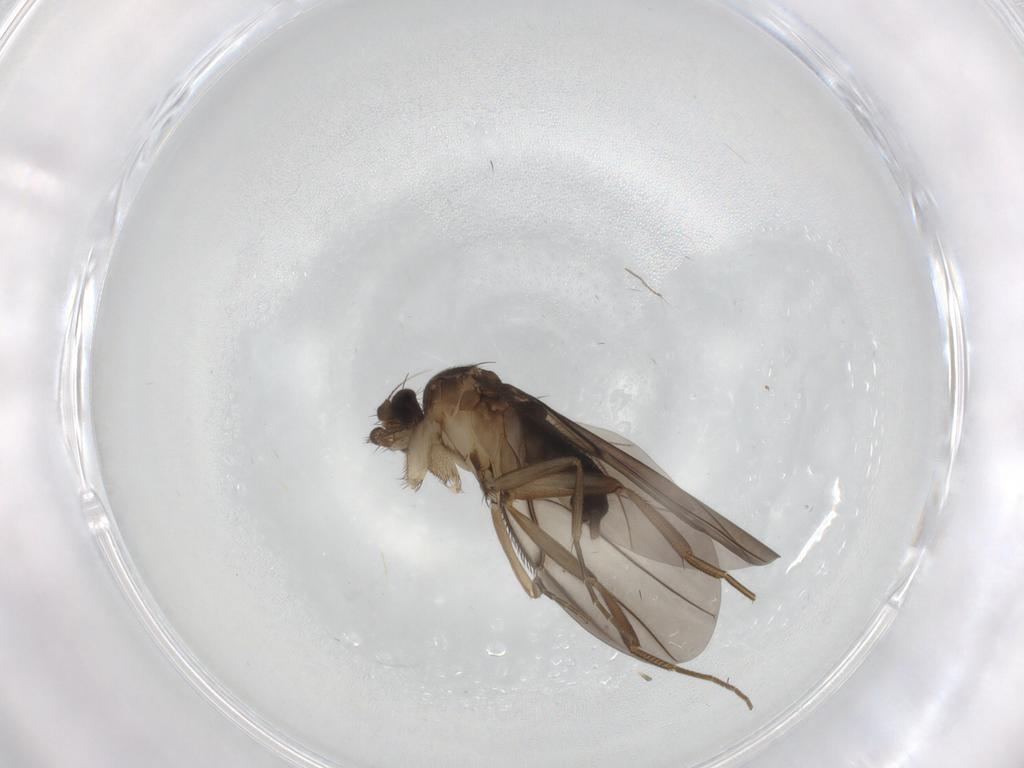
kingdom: Animalia
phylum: Arthropoda
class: Insecta
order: Diptera
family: Phoridae
